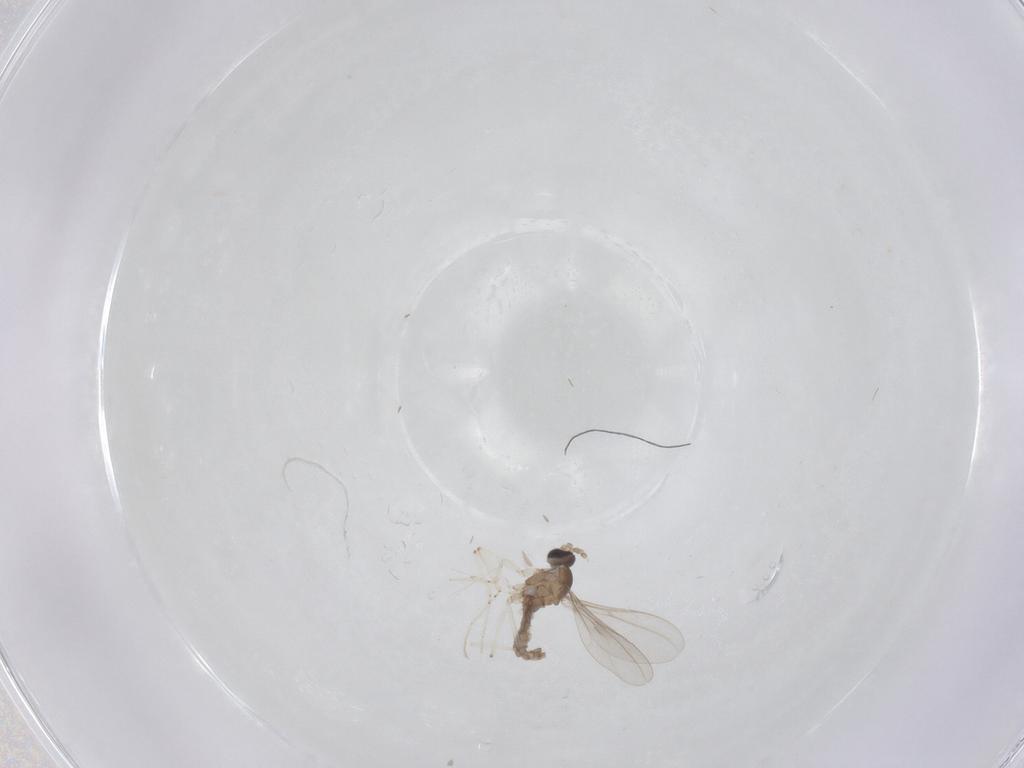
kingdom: Animalia
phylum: Arthropoda
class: Insecta
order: Diptera
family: Cecidomyiidae
